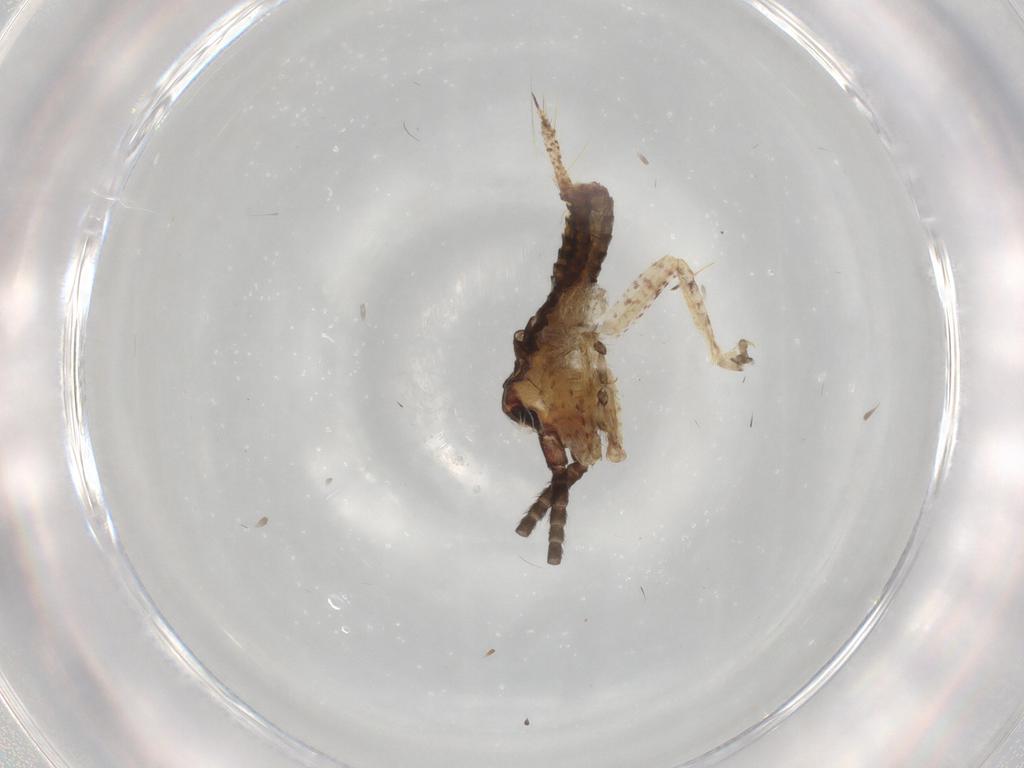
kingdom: Animalia
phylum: Arthropoda
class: Insecta
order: Orthoptera
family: Gryllidae
